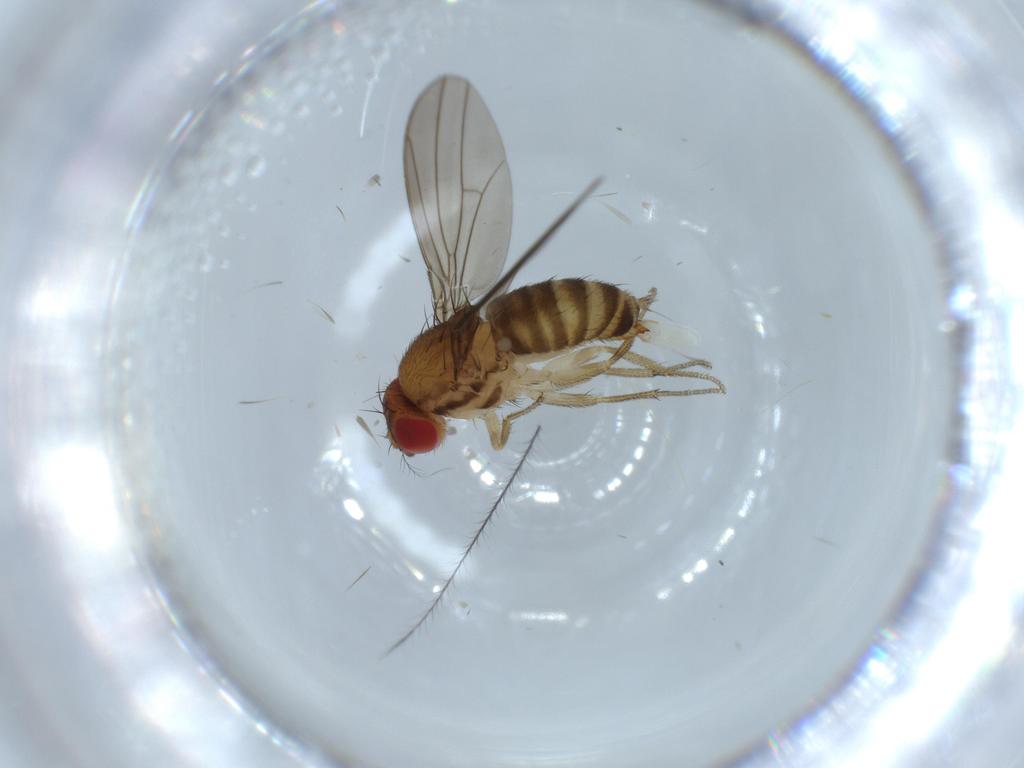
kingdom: Animalia
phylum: Arthropoda
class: Insecta
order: Diptera
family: Drosophilidae
